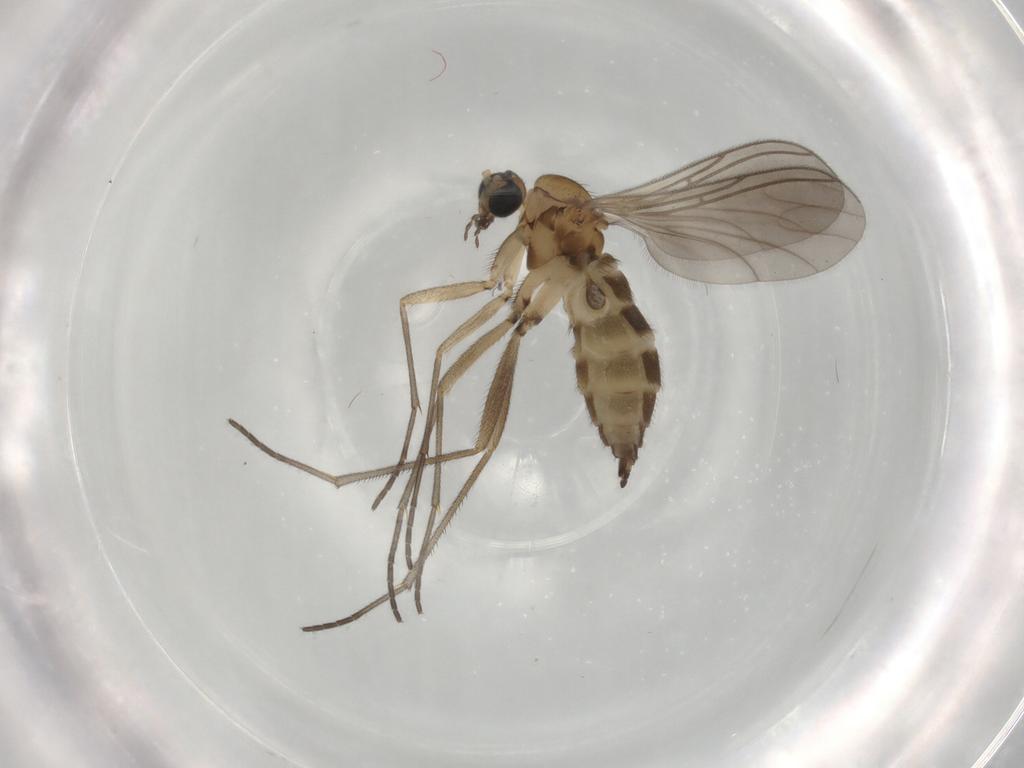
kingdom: Animalia
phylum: Arthropoda
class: Insecta
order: Diptera
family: Sciaridae
